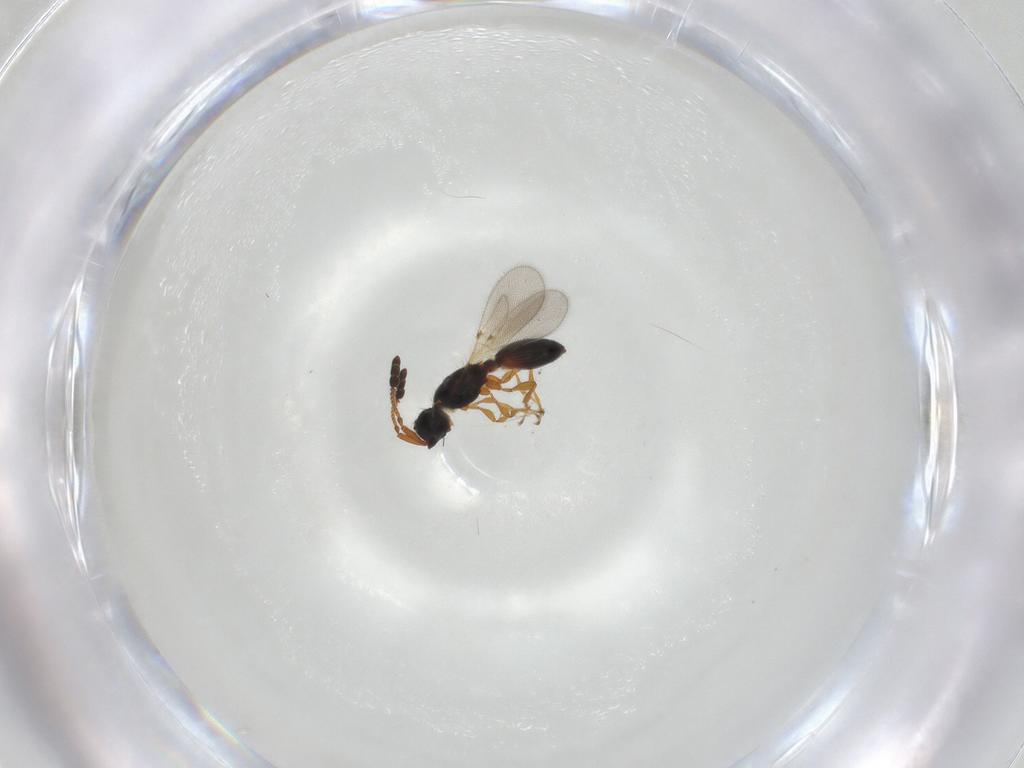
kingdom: Animalia
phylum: Arthropoda
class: Insecta
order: Hymenoptera
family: Diapriidae
